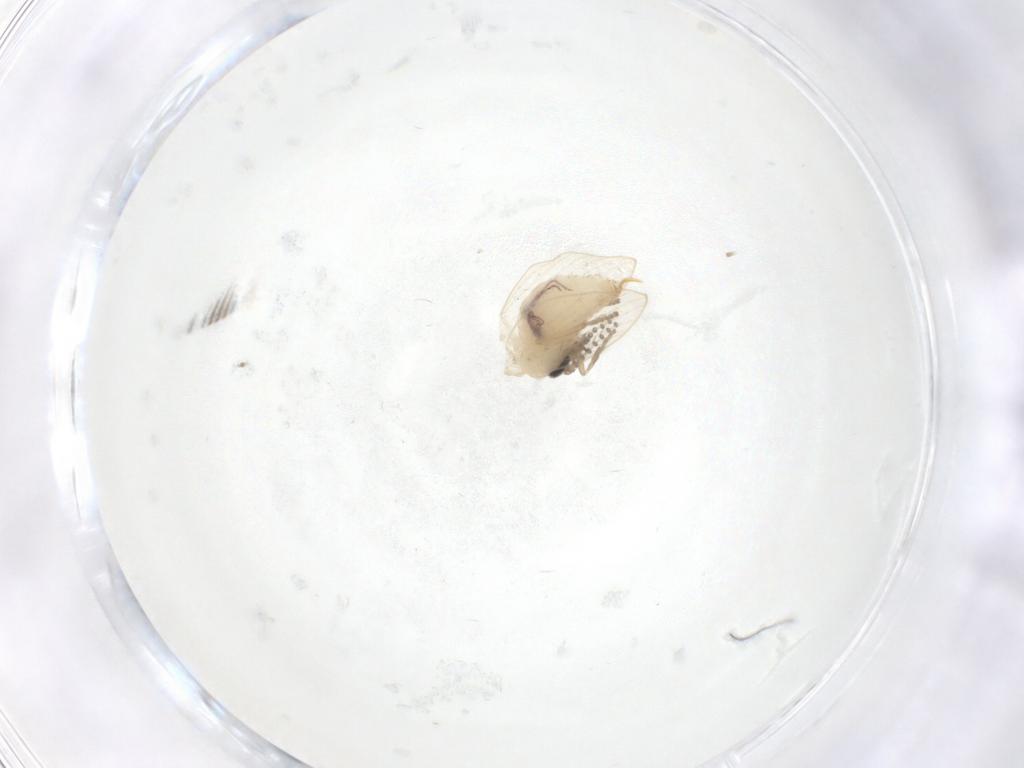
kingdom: Animalia
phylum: Arthropoda
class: Insecta
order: Diptera
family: Psychodidae
